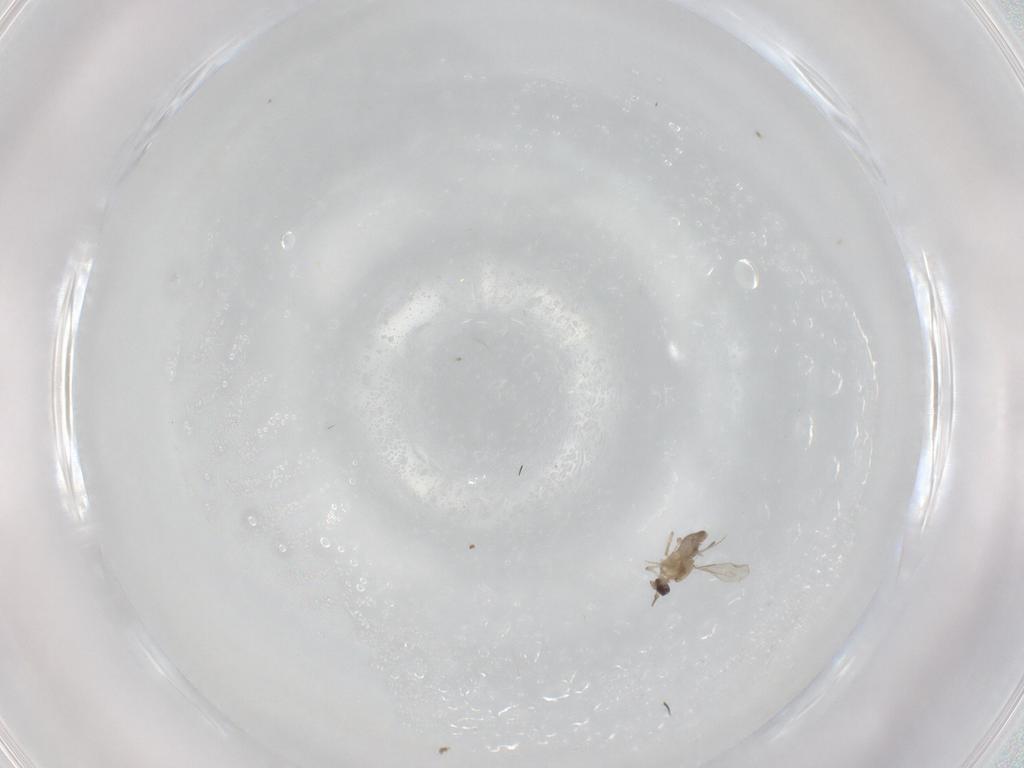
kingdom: Animalia
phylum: Arthropoda
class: Insecta
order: Diptera
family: Ceratopogonidae
